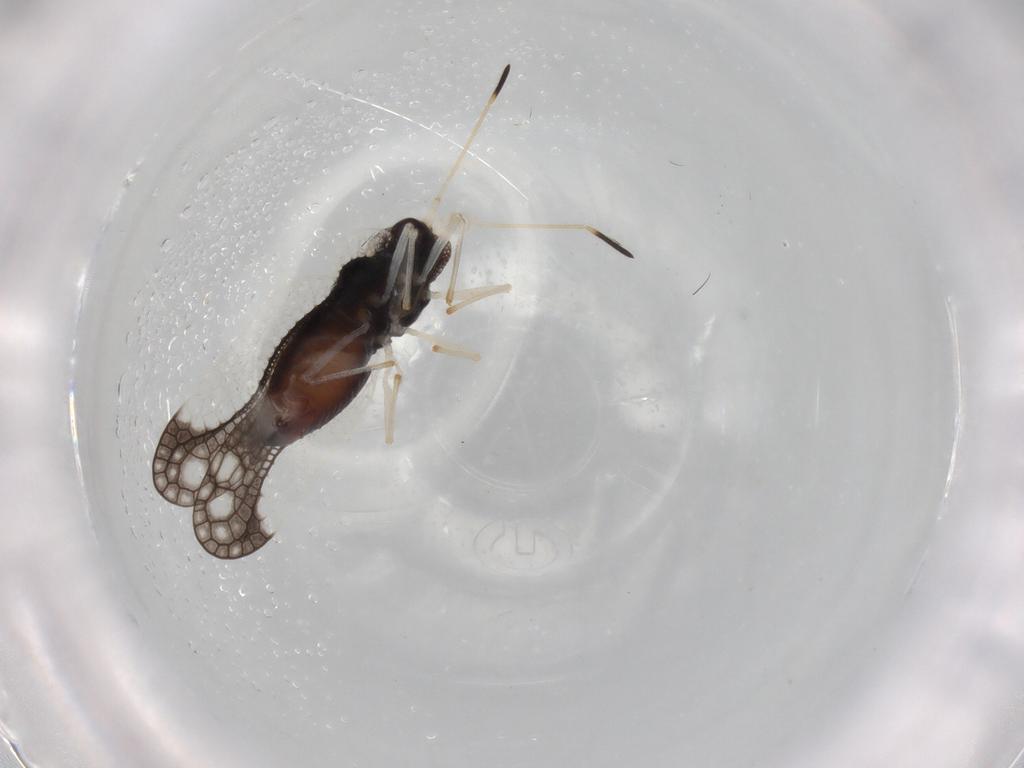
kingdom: Animalia
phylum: Arthropoda
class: Insecta
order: Hemiptera
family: Tingidae
